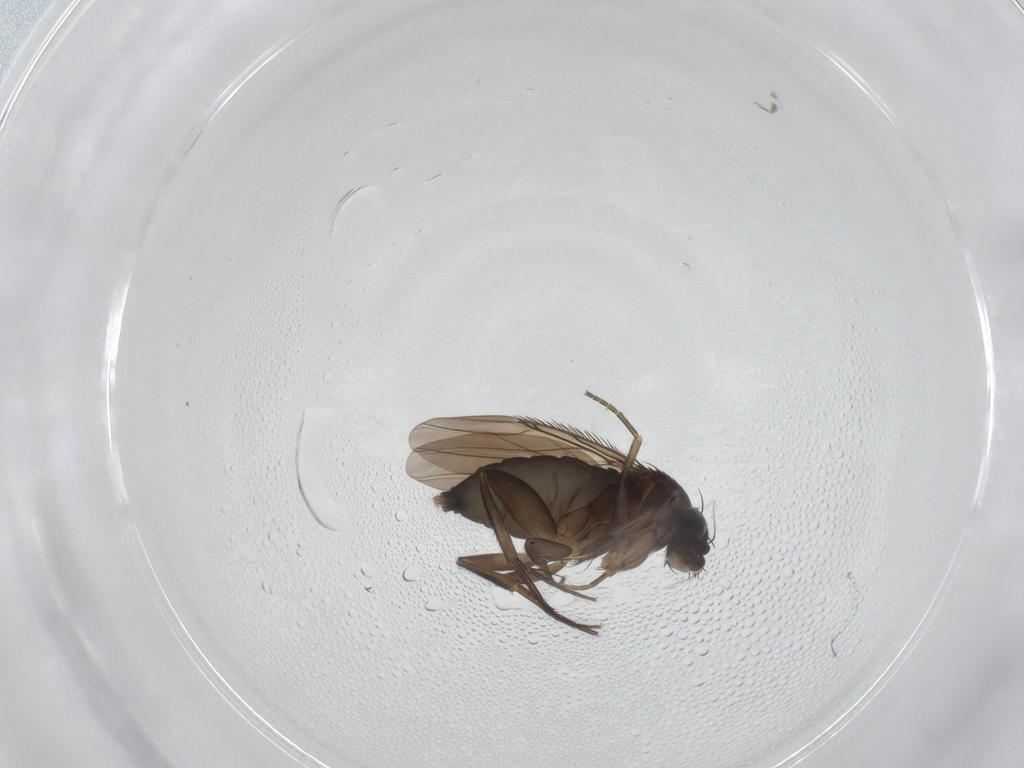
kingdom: Animalia
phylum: Arthropoda
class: Insecta
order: Diptera
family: Phoridae
